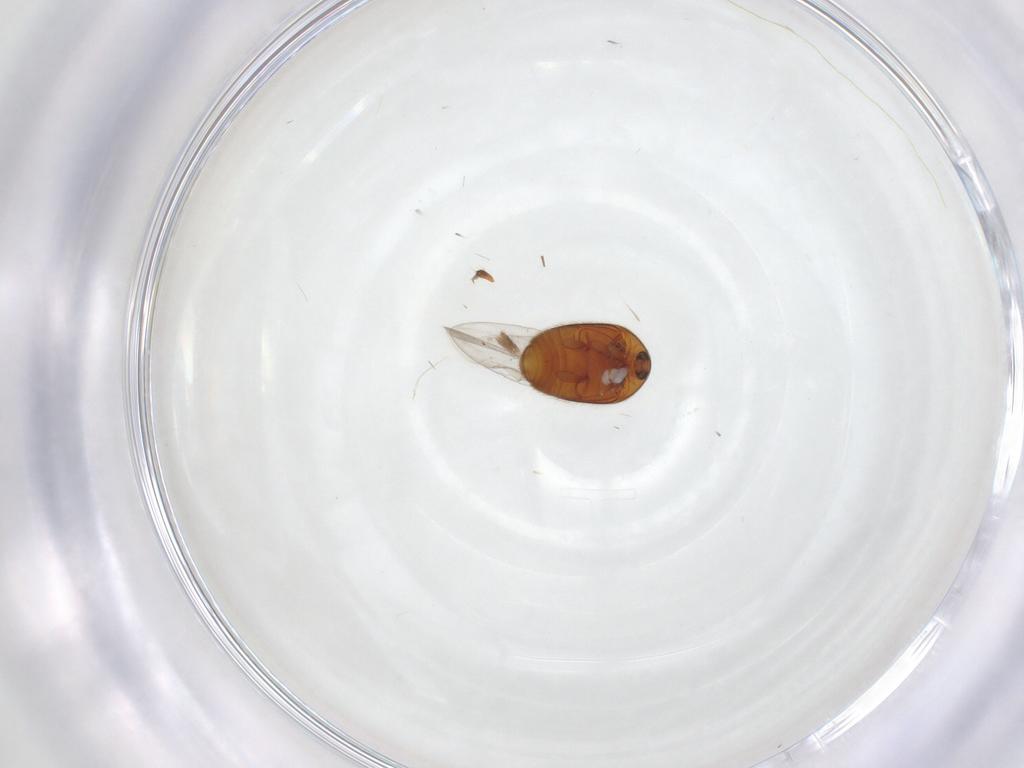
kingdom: Animalia
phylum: Arthropoda
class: Insecta
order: Coleoptera
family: Corylophidae
